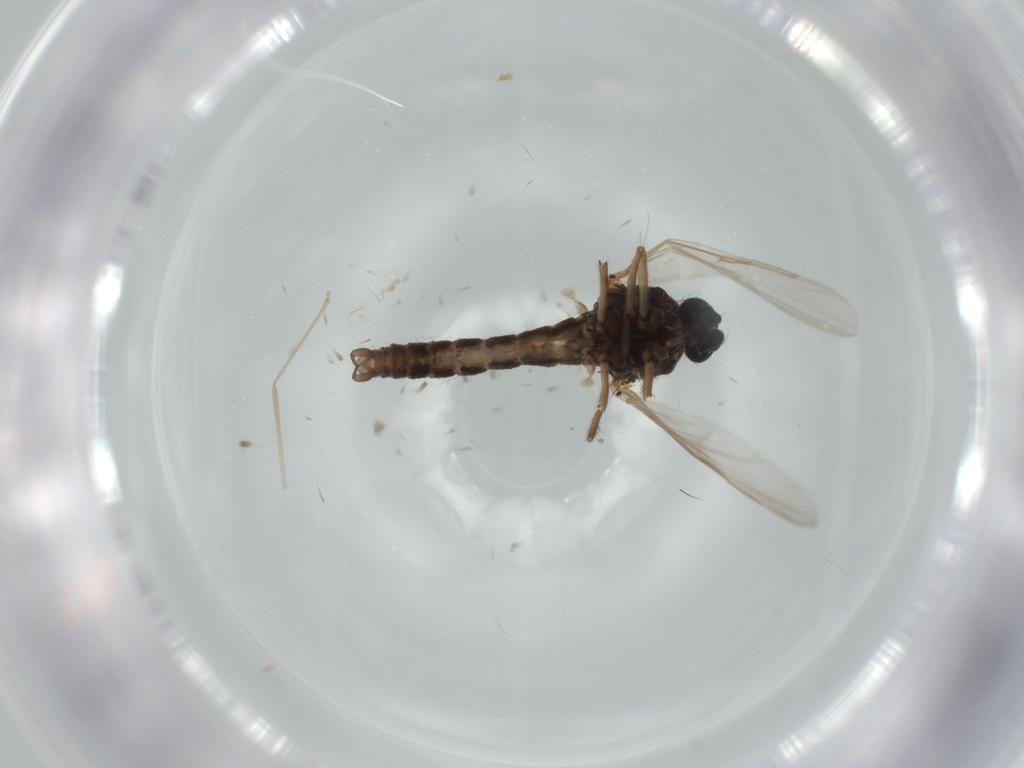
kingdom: Animalia
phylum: Arthropoda
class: Insecta
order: Diptera
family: Ceratopogonidae
